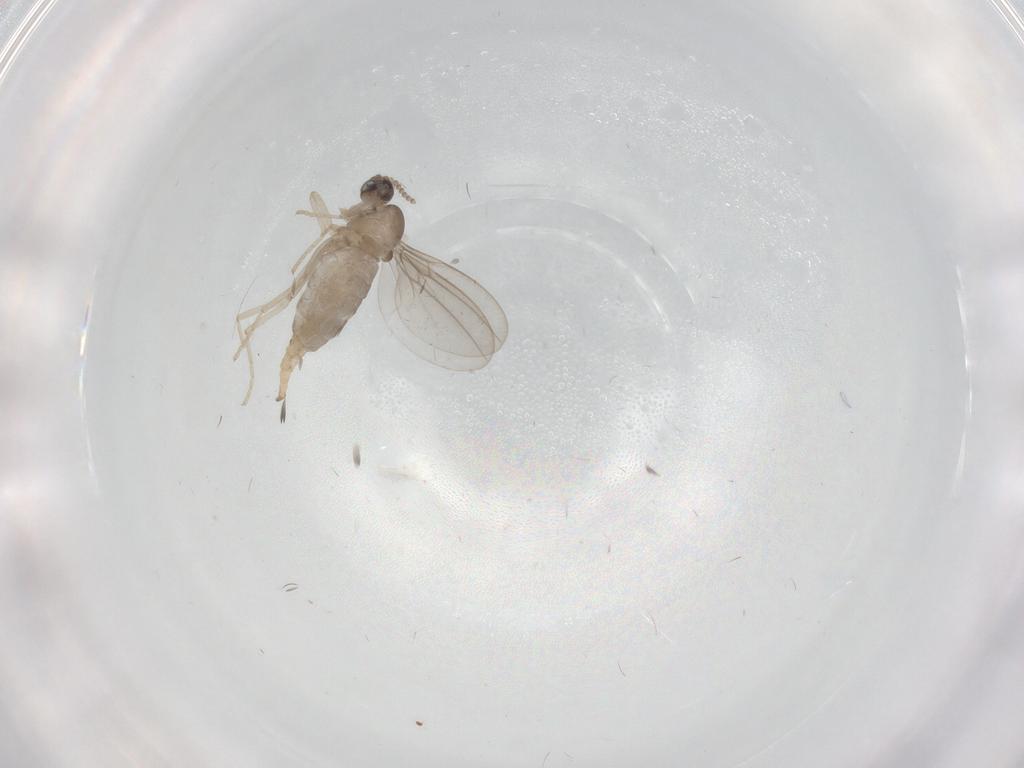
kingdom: Animalia
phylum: Arthropoda
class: Insecta
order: Diptera
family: Cecidomyiidae
